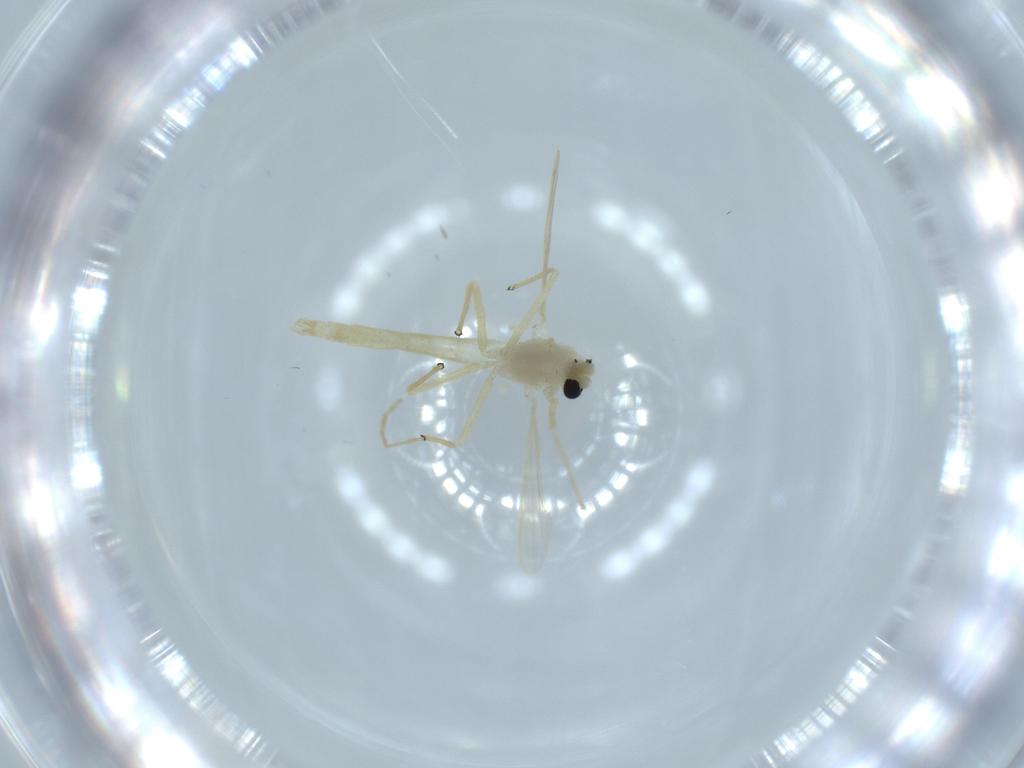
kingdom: Animalia
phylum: Arthropoda
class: Insecta
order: Diptera
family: Chironomidae
